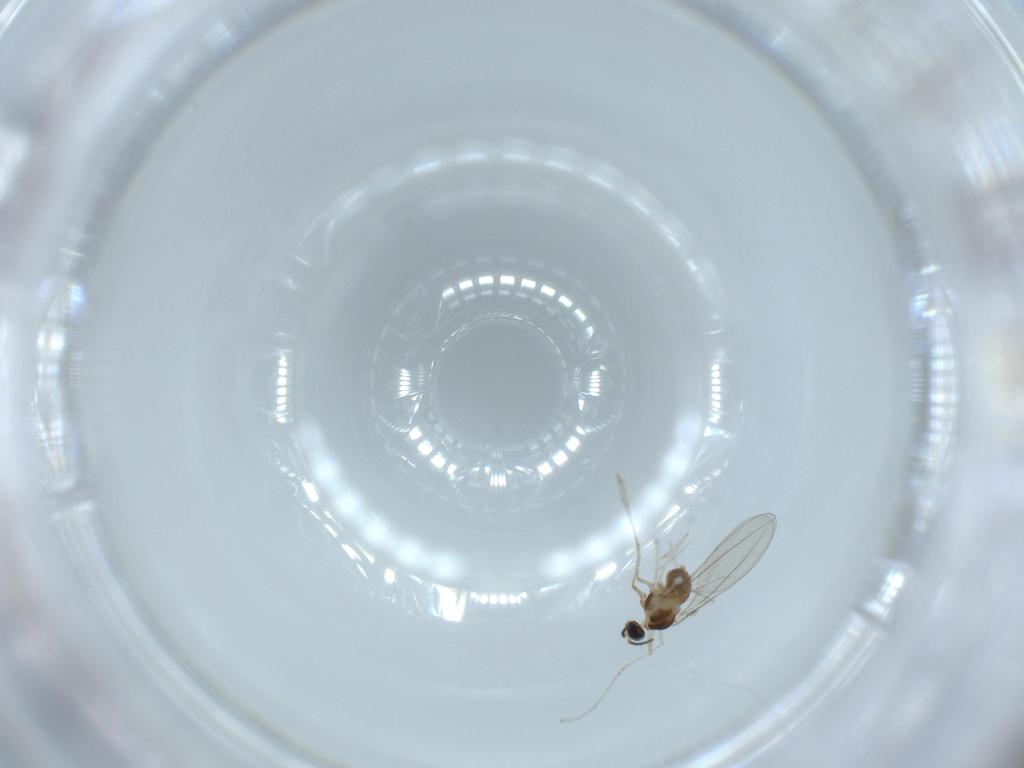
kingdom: Animalia
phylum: Arthropoda
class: Insecta
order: Diptera
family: Cecidomyiidae
